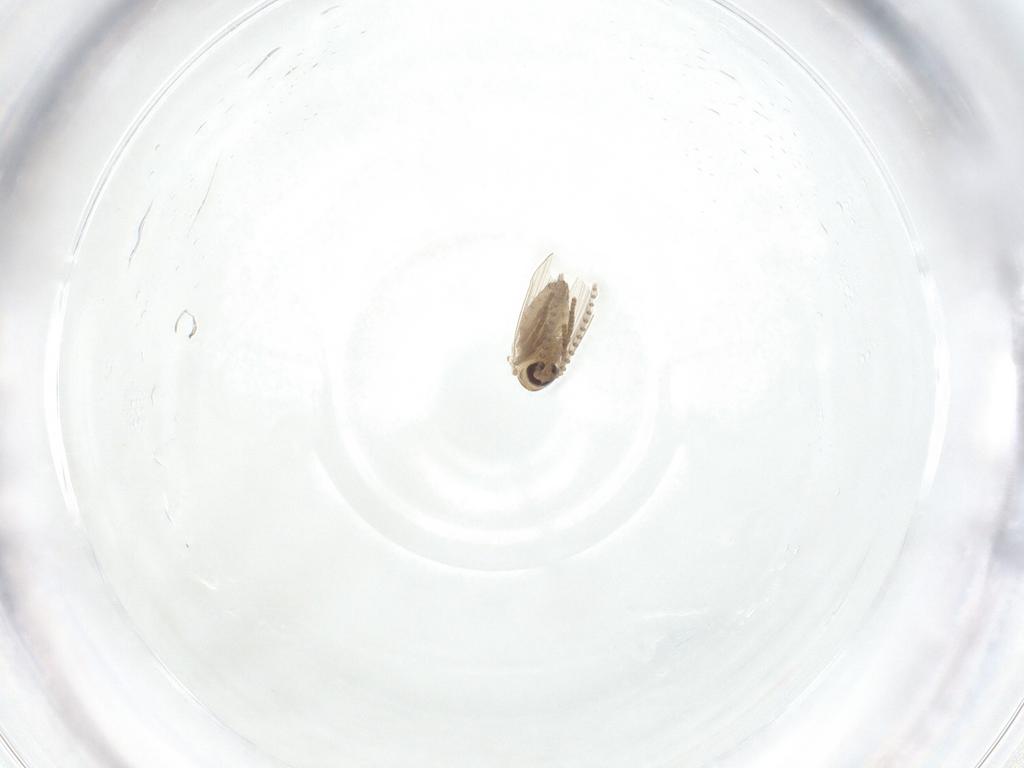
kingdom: Animalia
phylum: Arthropoda
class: Insecta
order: Diptera
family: Psychodidae
